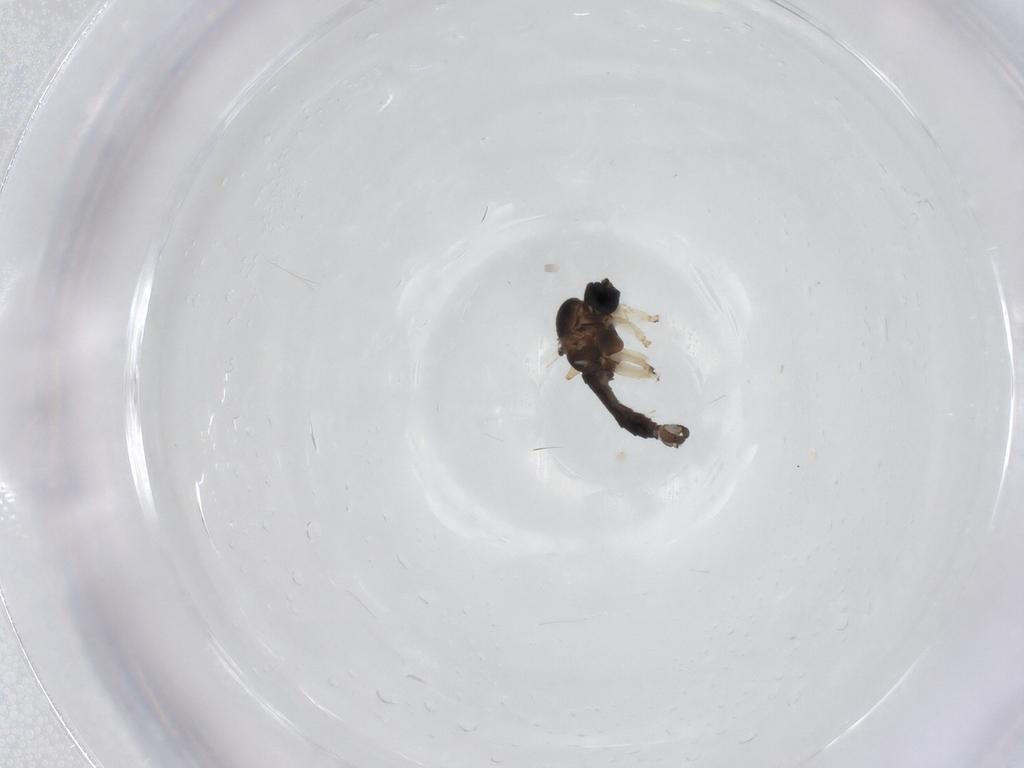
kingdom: Animalia
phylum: Arthropoda
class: Insecta
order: Diptera
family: Sciaridae
